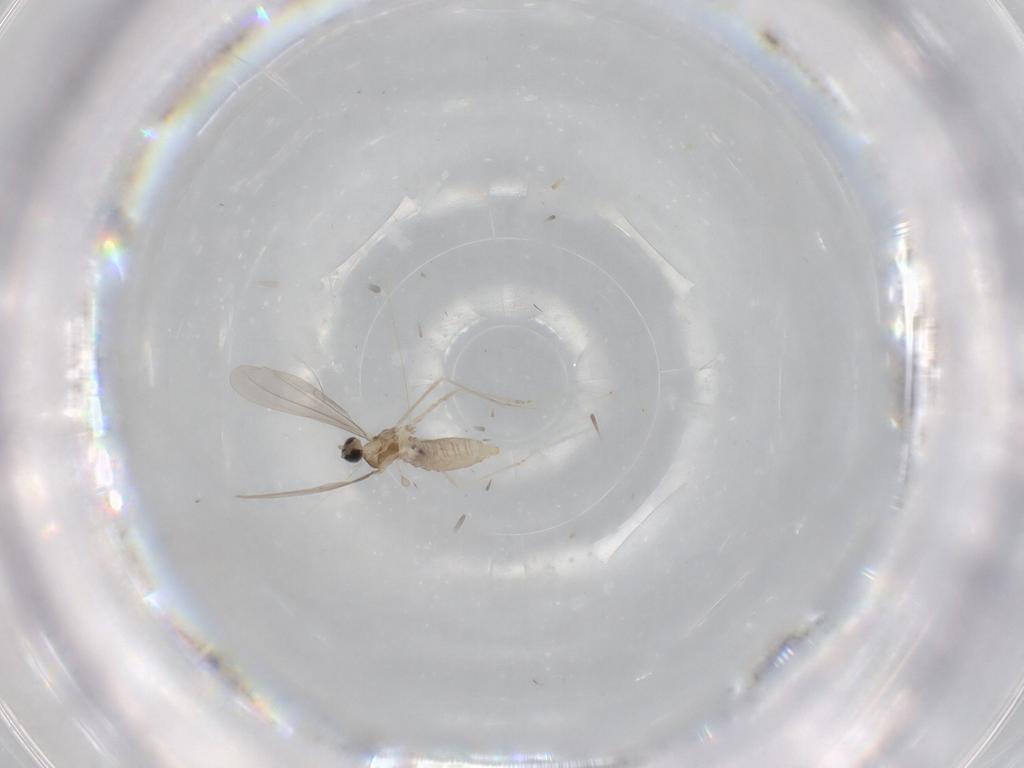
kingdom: Animalia
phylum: Arthropoda
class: Insecta
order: Diptera
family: Cecidomyiidae
